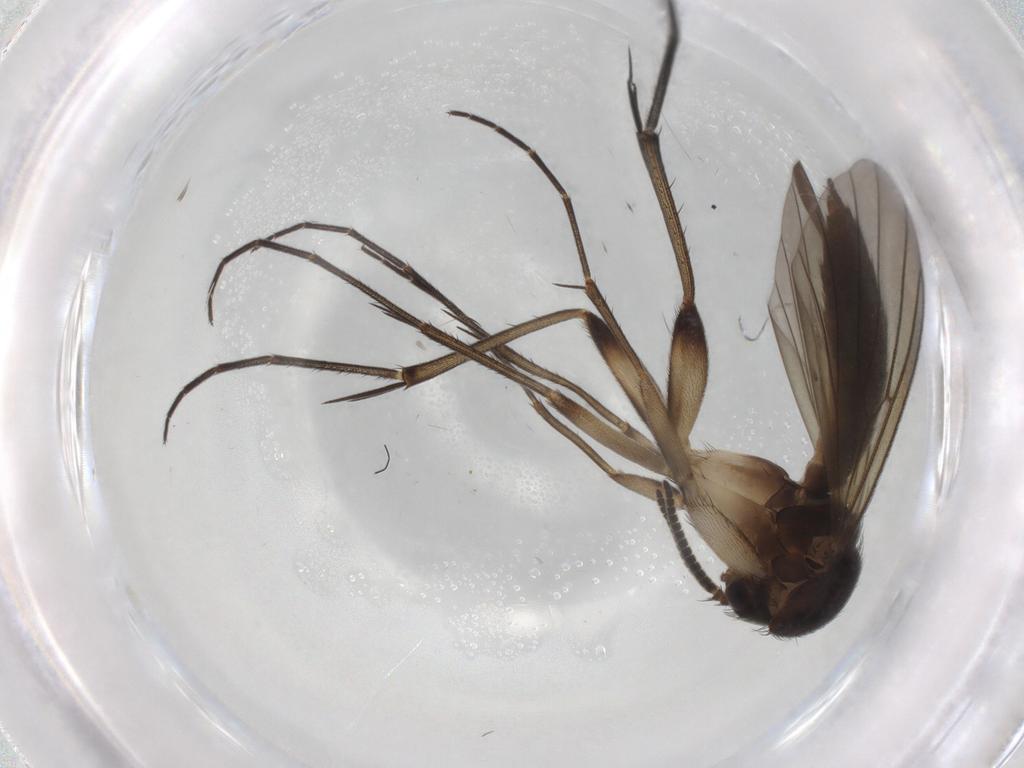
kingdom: Animalia
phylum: Arthropoda
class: Insecta
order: Diptera
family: Mycetophilidae
